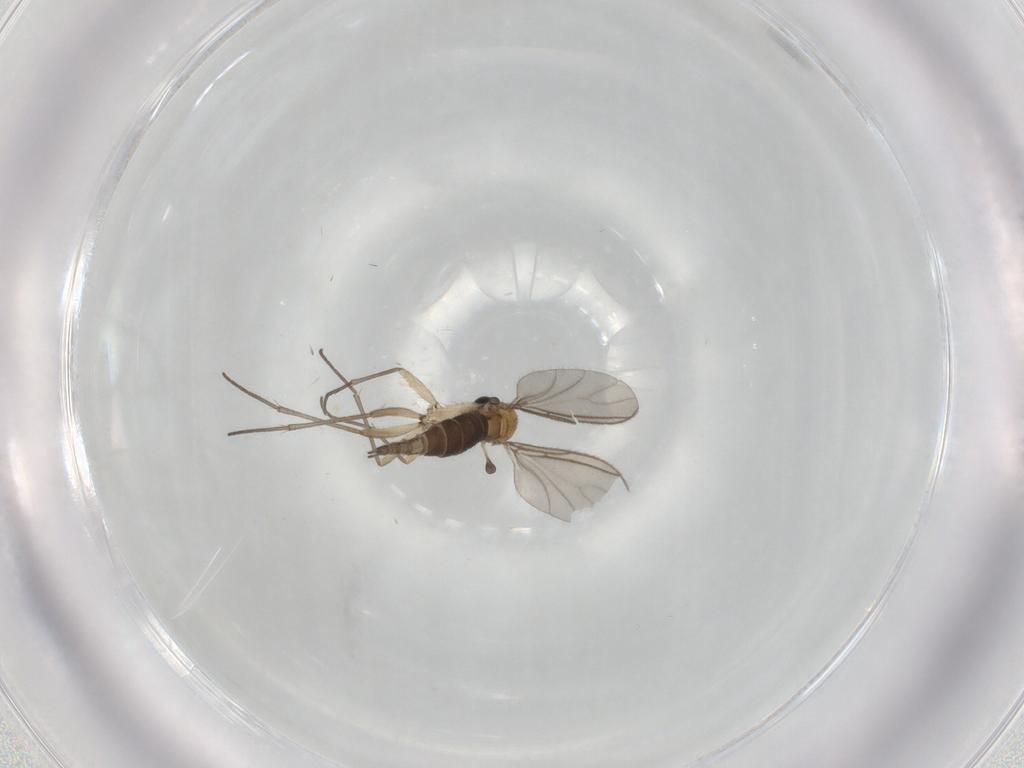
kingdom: Animalia
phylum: Arthropoda
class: Insecta
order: Diptera
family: Sciaridae
